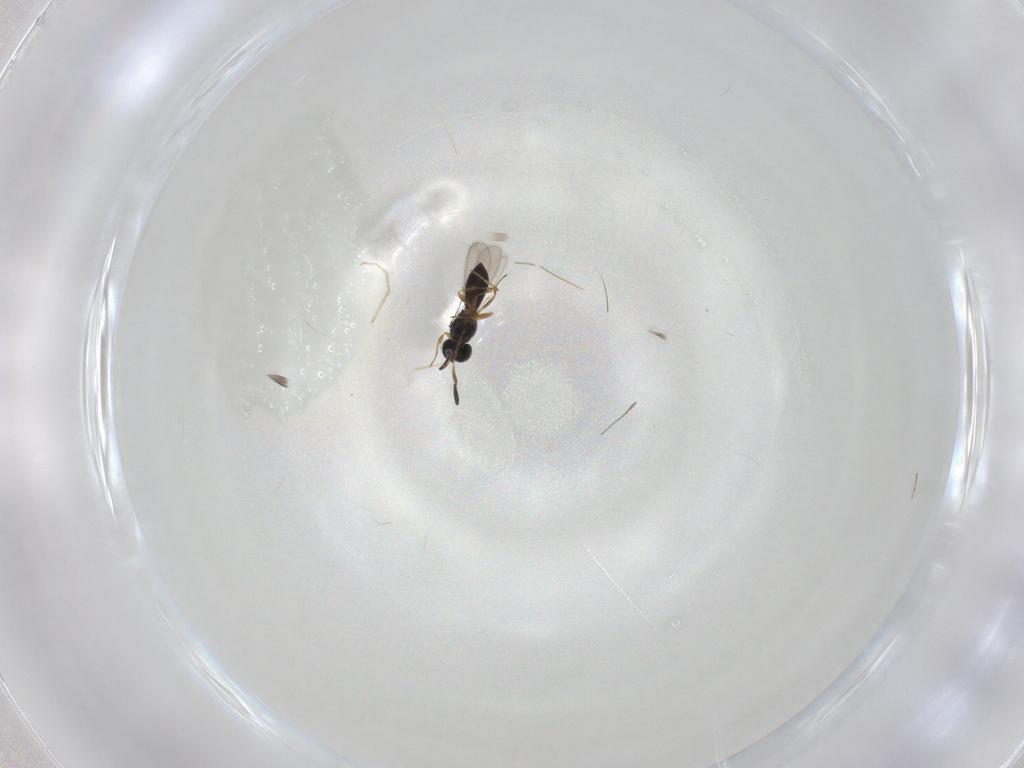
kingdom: Animalia
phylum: Arthropoda
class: Insecta
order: Hymenoptera
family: Scelionidae
